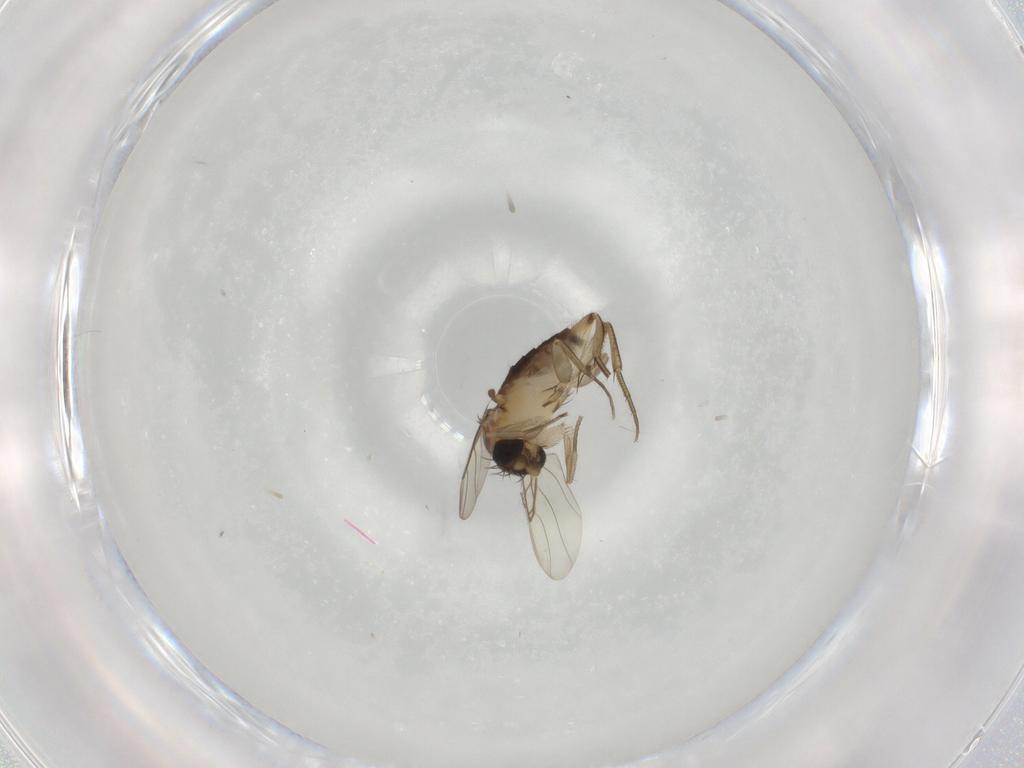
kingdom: Animalia
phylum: Arthropoda
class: Insecta
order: Diptera
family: Phoridae
